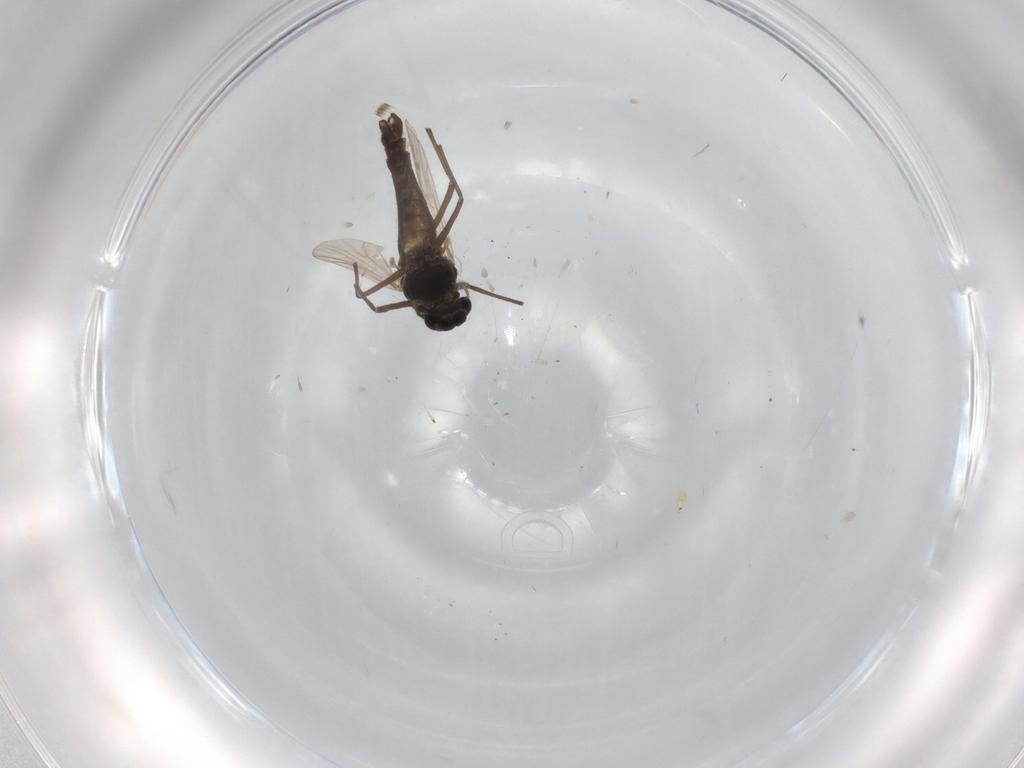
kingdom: Animalia
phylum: Arthropoda
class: Insecta
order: Diptera
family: Chironomidae
